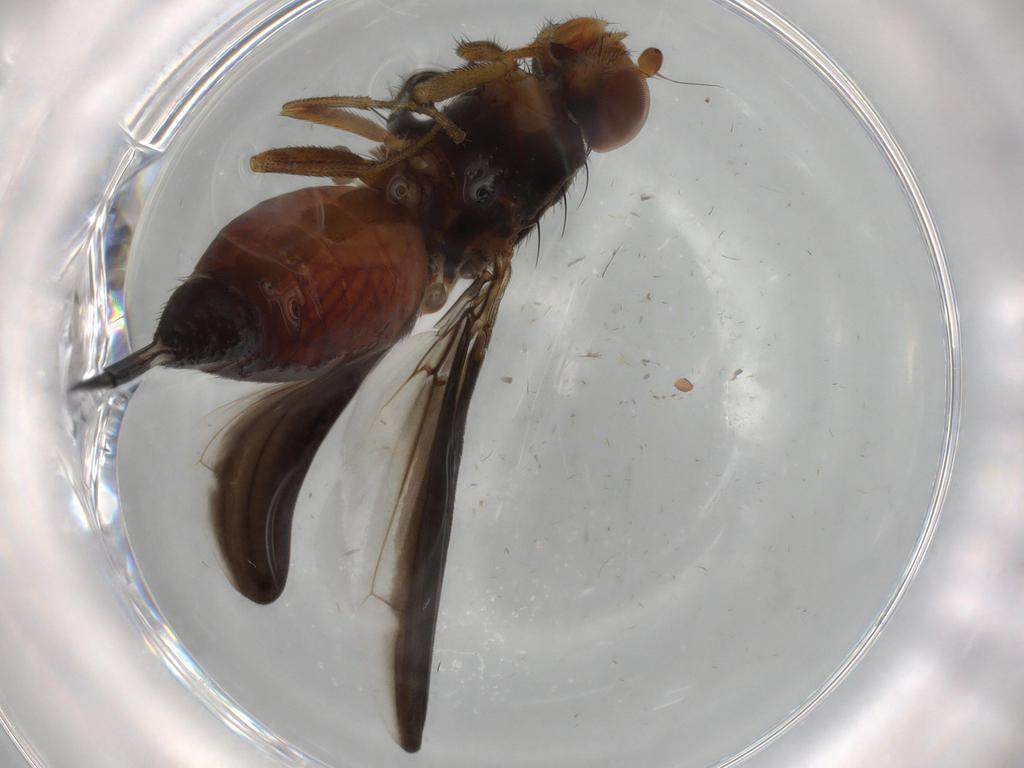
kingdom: Animalia
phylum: Arthropoda
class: Insecta
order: Diptera
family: Ulidiidae
